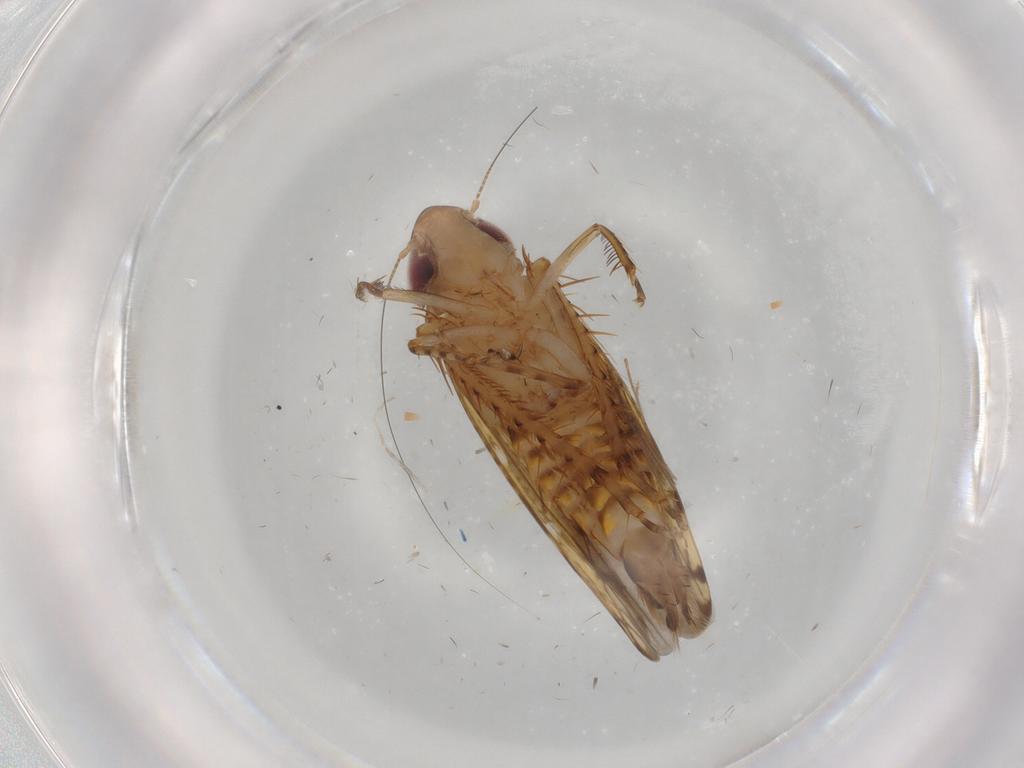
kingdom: Animalia
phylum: Arthropoda
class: Insecta
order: Hemiptera
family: Cicadellidae
